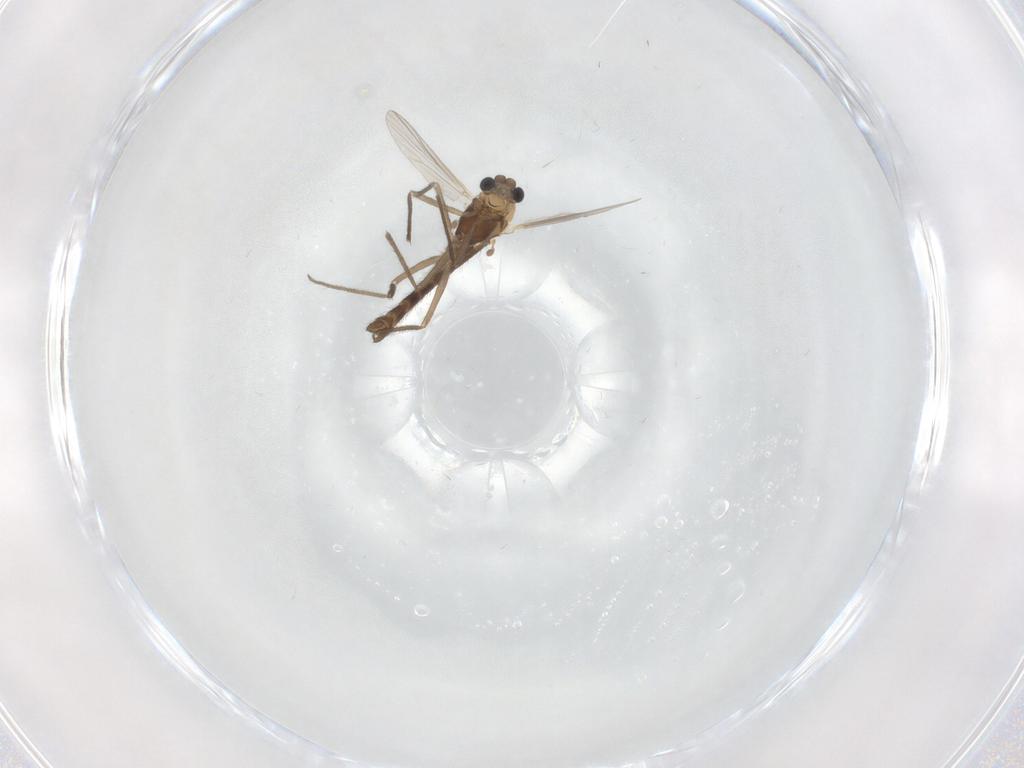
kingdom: Animalia
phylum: Arthropoda
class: Insecta
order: Diptera
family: Chironomidae
